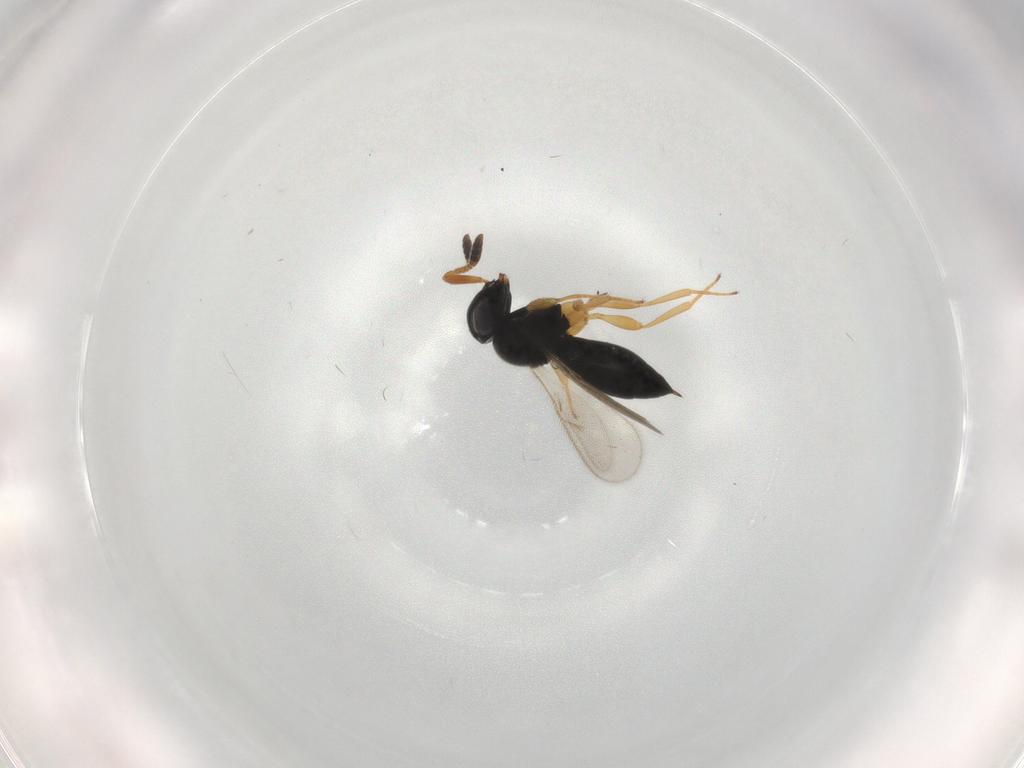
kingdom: Animalia
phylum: Arthropoda
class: Insecta
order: Hymenoptera
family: Scelionidae
